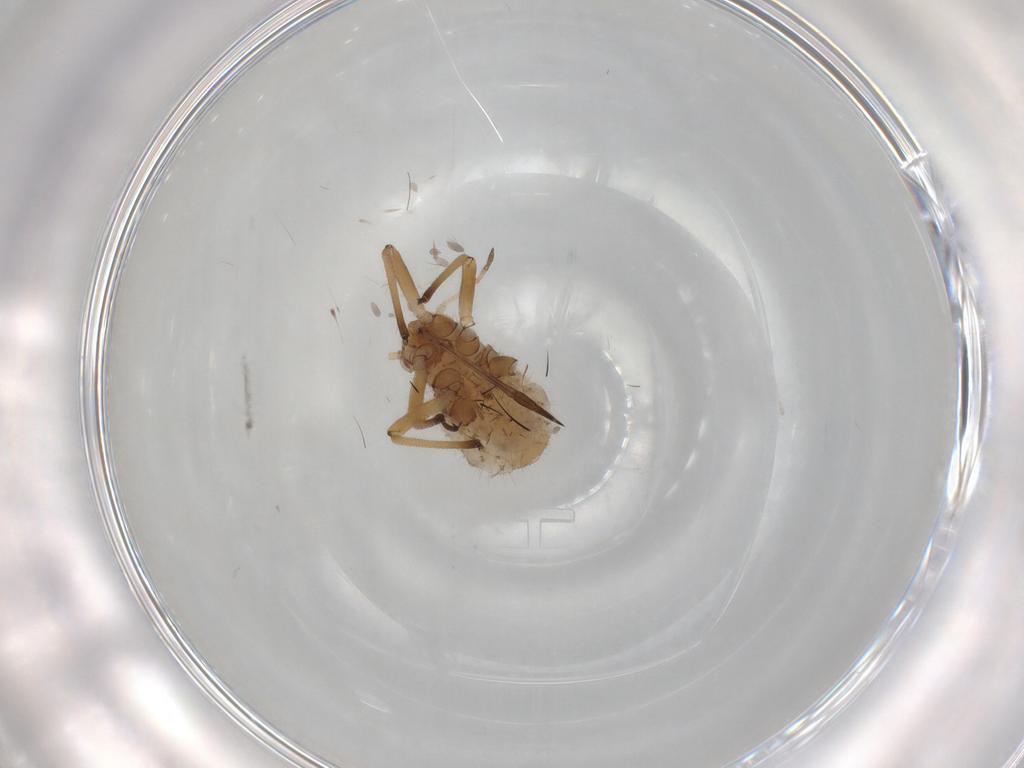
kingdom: Animalia
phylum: Arthropoda
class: Insecta
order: Hemiptera
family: Aphididae
